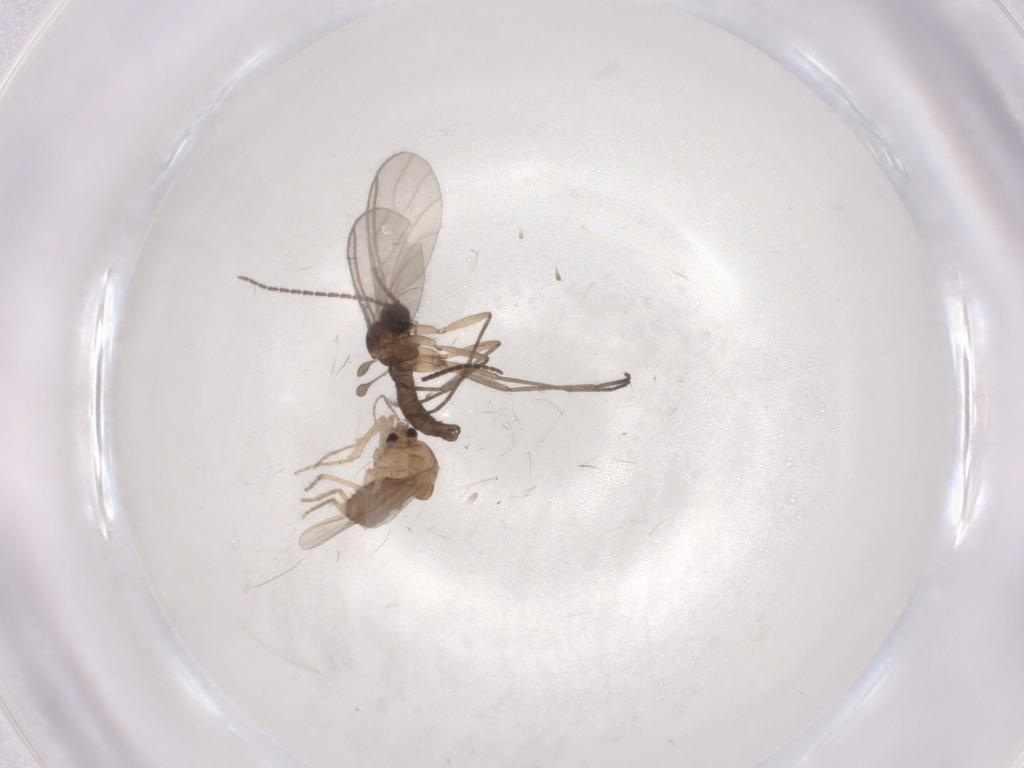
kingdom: Animalia
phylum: Arthropoda
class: Insecta
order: Diptera
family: Ceratopogonidae
